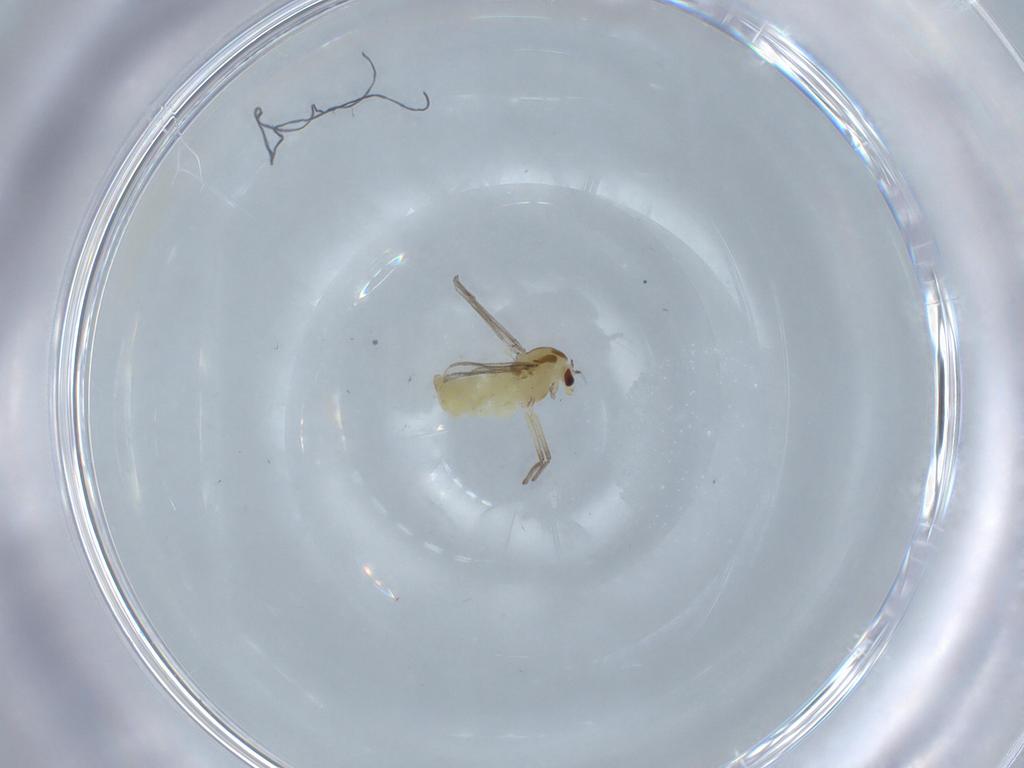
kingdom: Animalia
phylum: Arthropoda
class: Insecta
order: Diptera
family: Chironomidae
